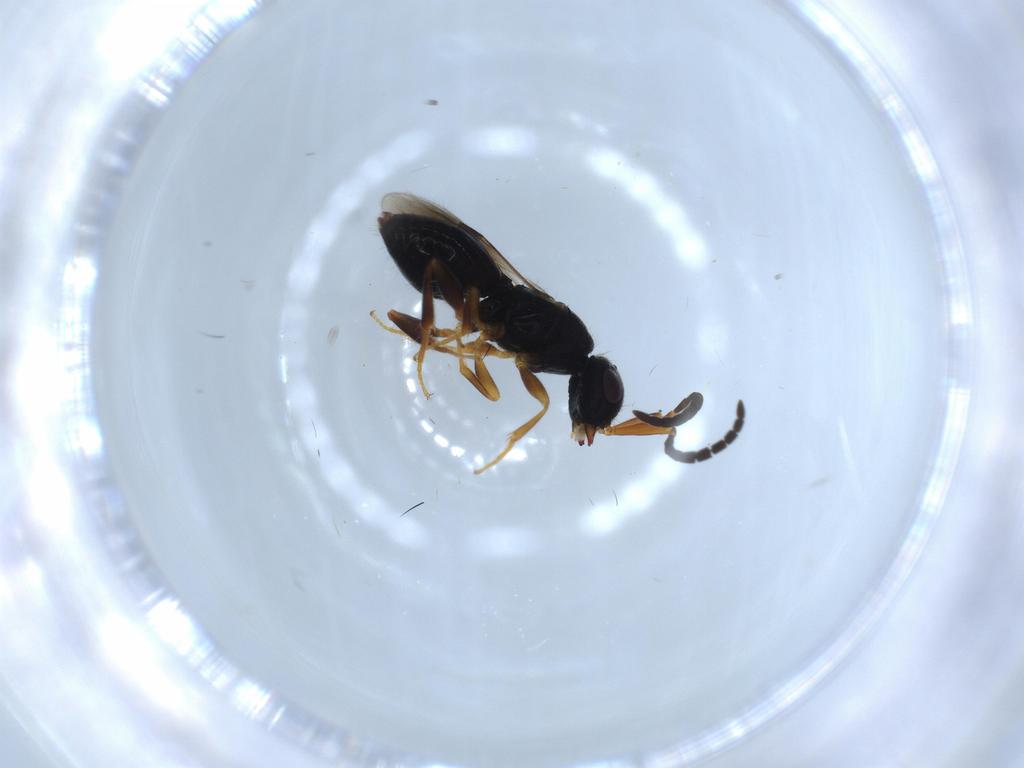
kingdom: Animalia
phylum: Arthropoda
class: Insecta
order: Hymenoptera
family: Megaspilidae
